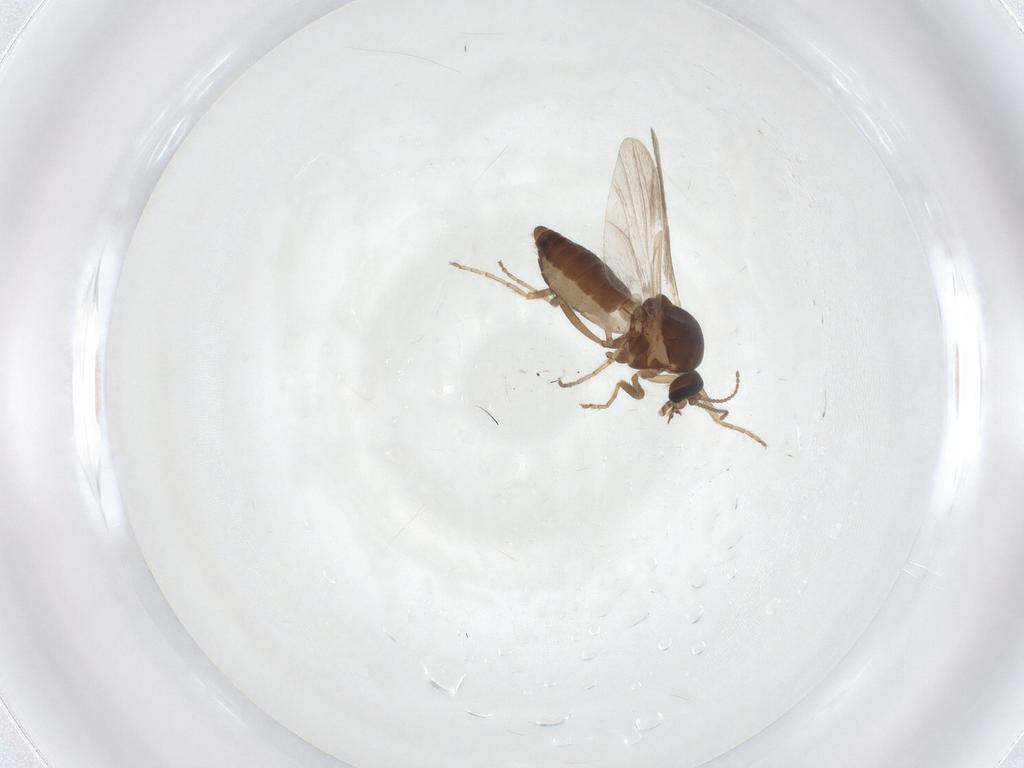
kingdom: Animalia
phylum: Arthropoda
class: Insecta
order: Diptera
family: Ceratopogonidae
